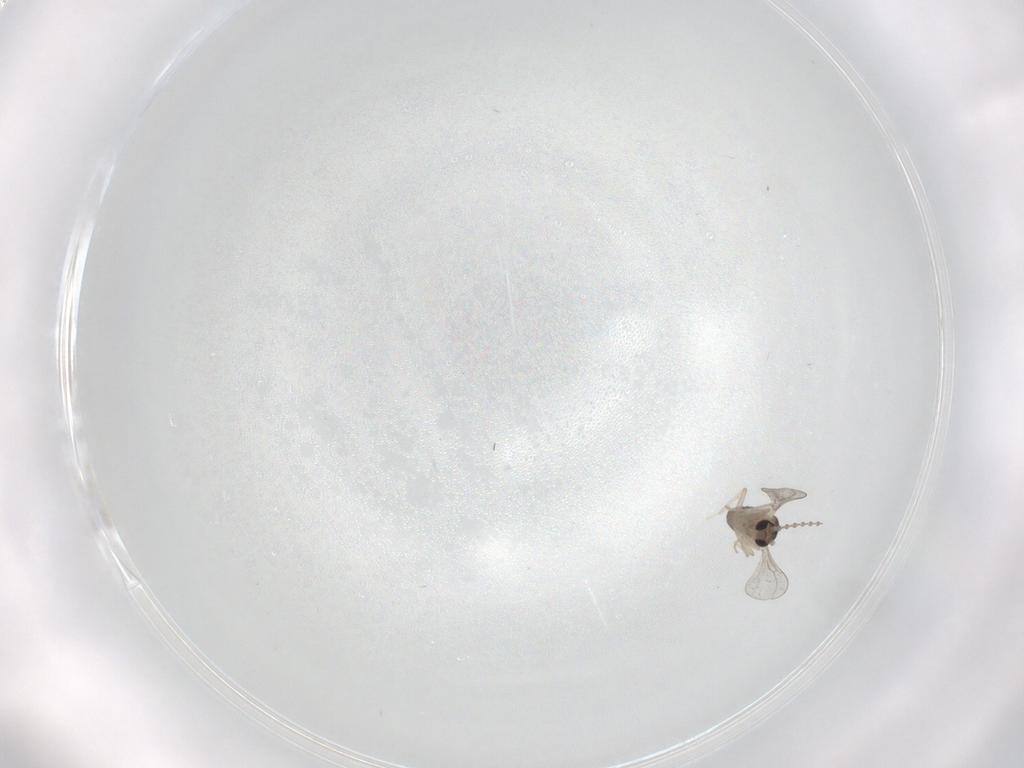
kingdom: Animalia
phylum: Arthropoda
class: Insecta
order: Diptera
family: Cecidomyiidae
